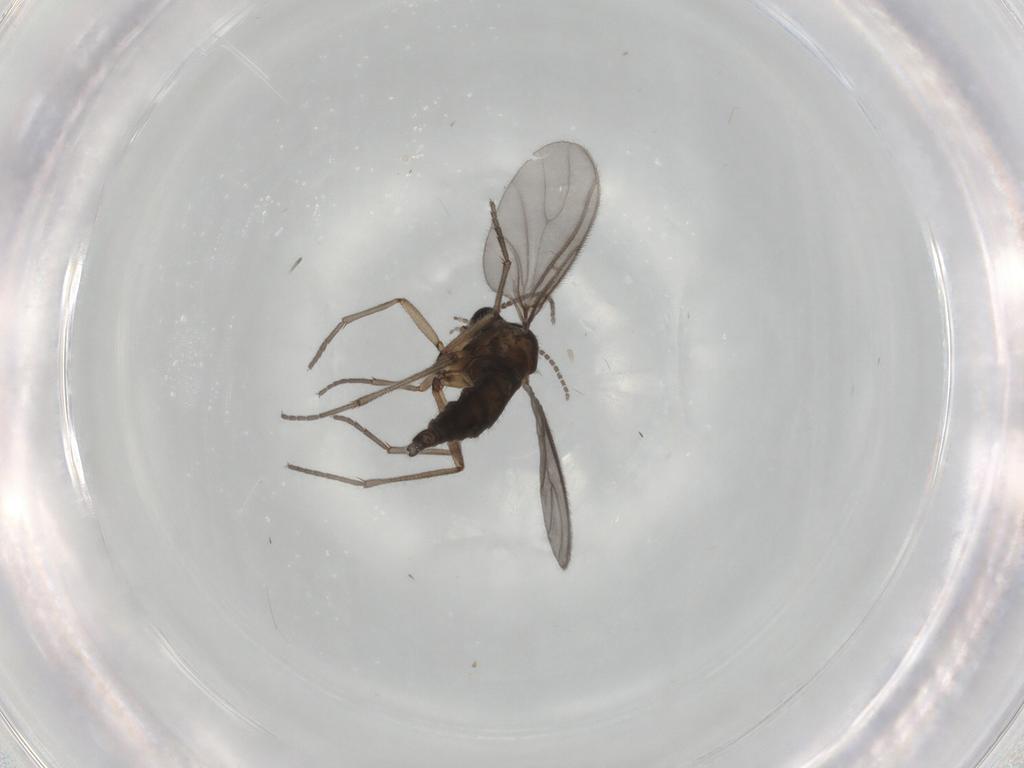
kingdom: Animalia
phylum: Arthropoda
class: Insecta
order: Diptera
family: Sciaridae
